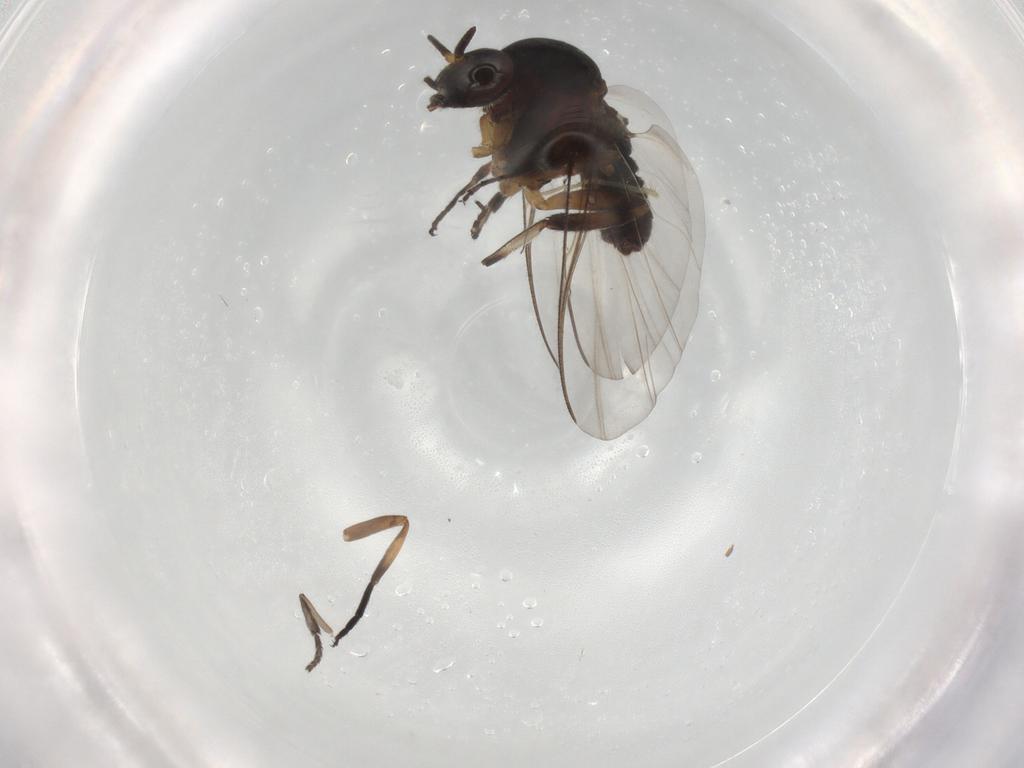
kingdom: Animalia
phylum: Arthropoda
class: Insecta
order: Diptera
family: Simuliidae
